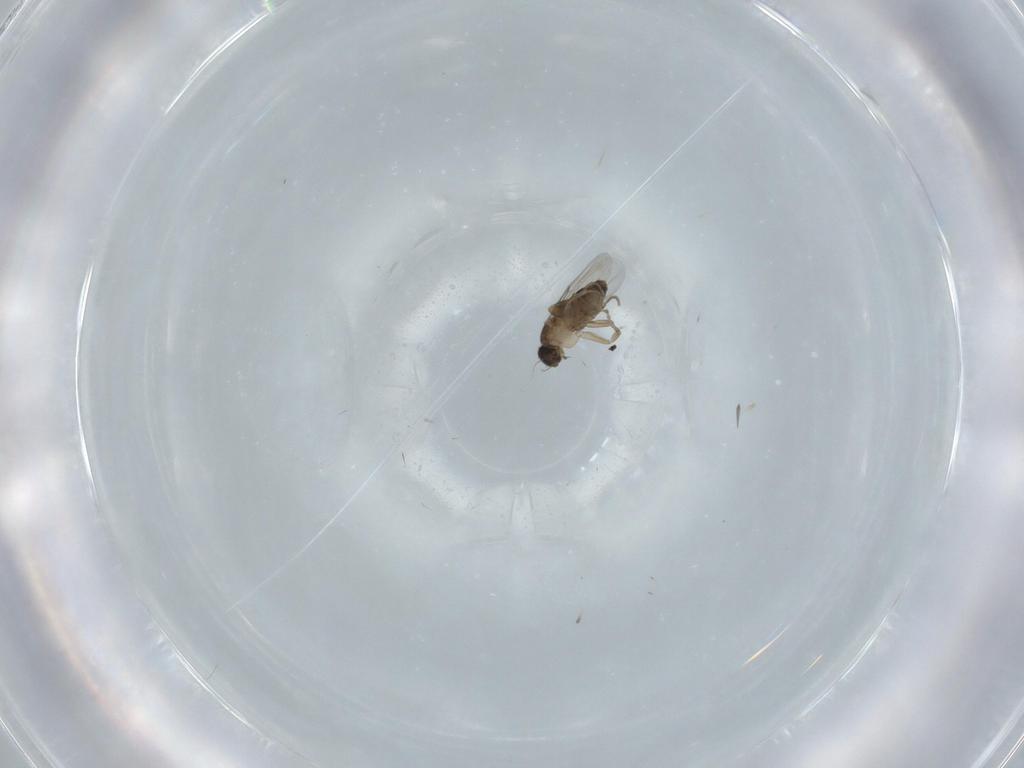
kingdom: Animalia
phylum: Arthropoda
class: Insecta
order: Diptera
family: Phoridae
